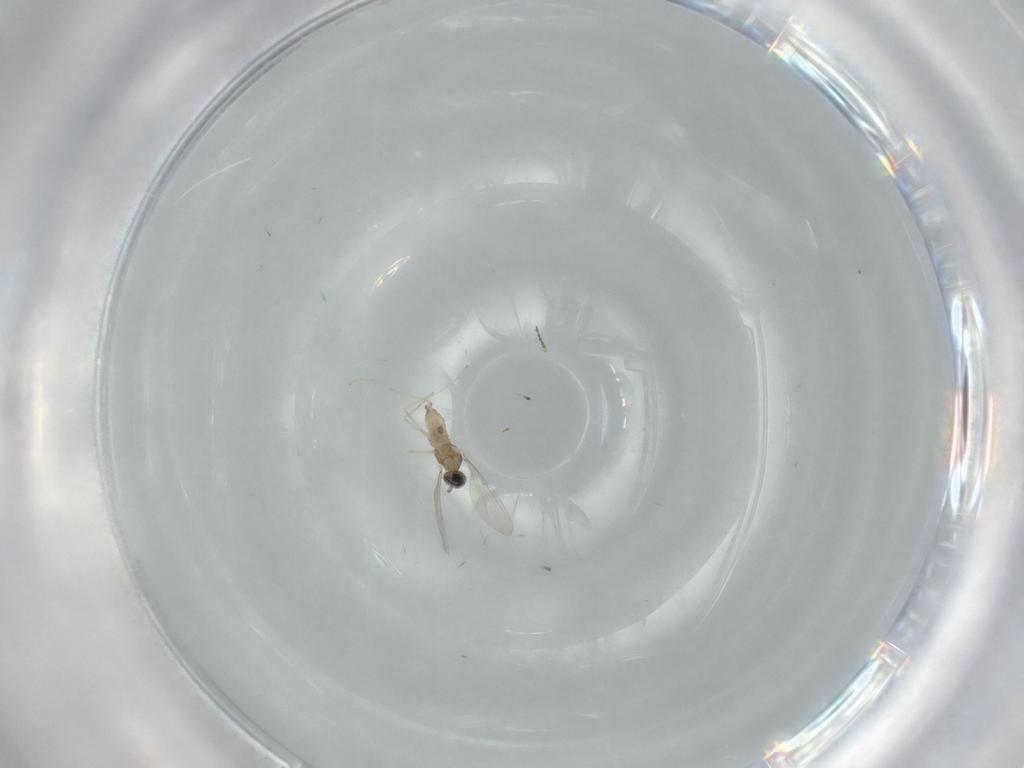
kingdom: Animalia
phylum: Arthropoda
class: Insecta
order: Diptera
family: Cecidomyiidae
